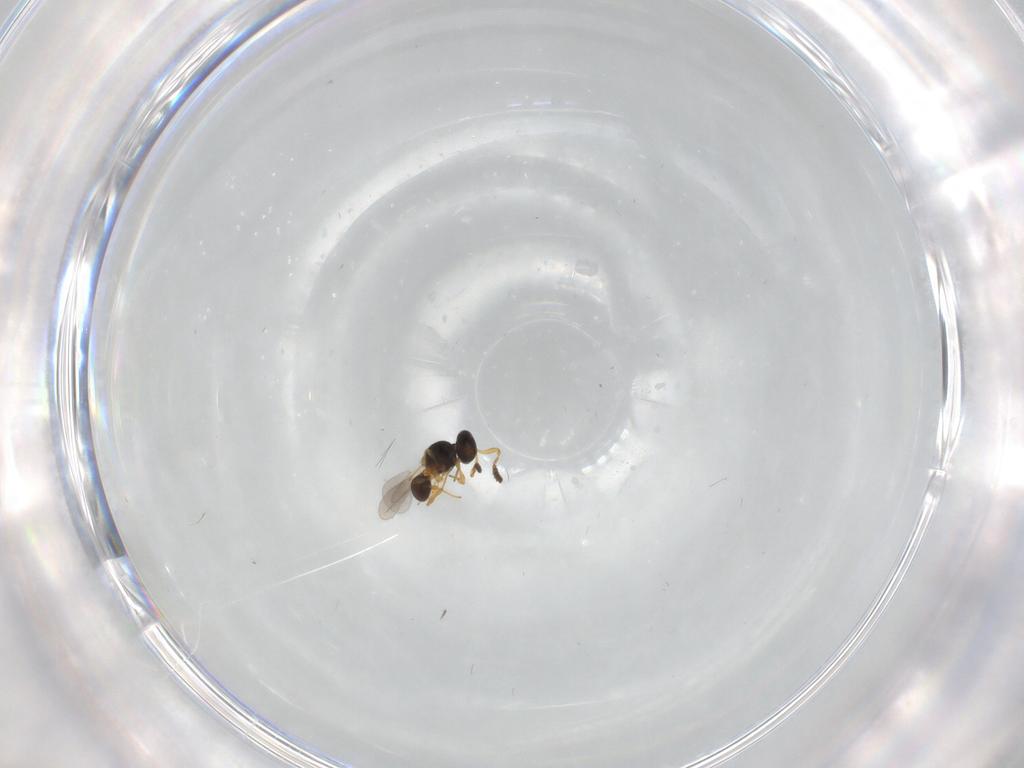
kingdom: Animalia
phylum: Arthropoda
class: Insecta
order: Hymenoptera
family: Platygastridae
